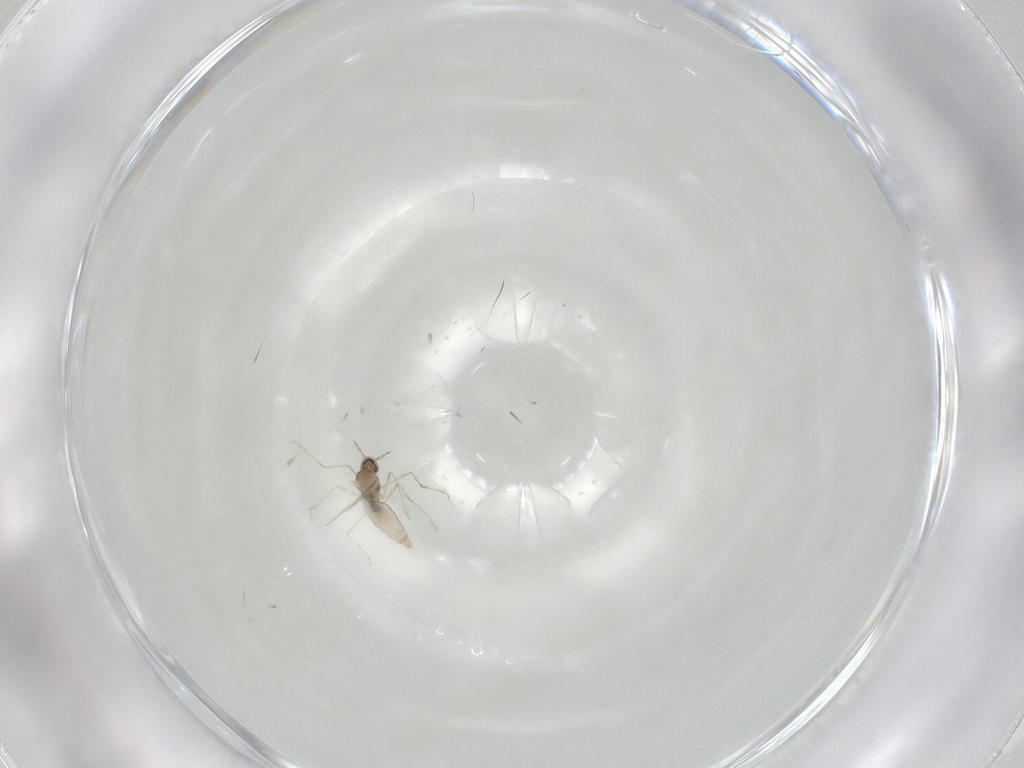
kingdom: Animalia
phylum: Arthropoda
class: Insecta
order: Diptera
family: Cecidomyiidae
